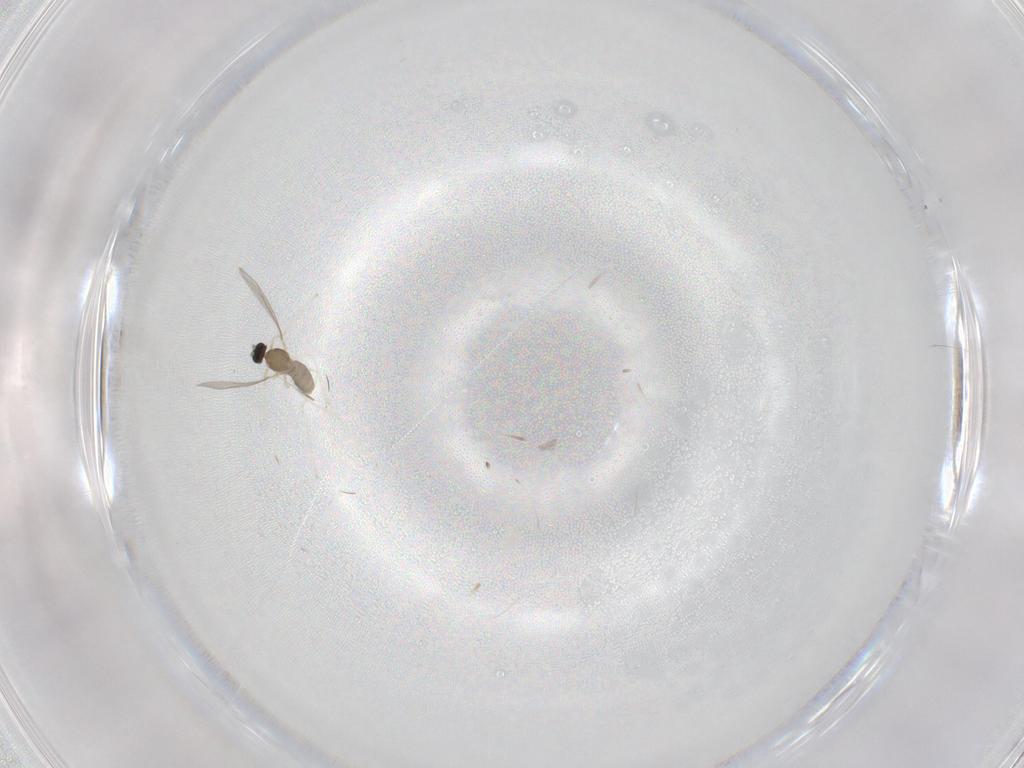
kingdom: Animalia
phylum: Arthropoda
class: Insecta
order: Diptera
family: Cecidomyiidae
